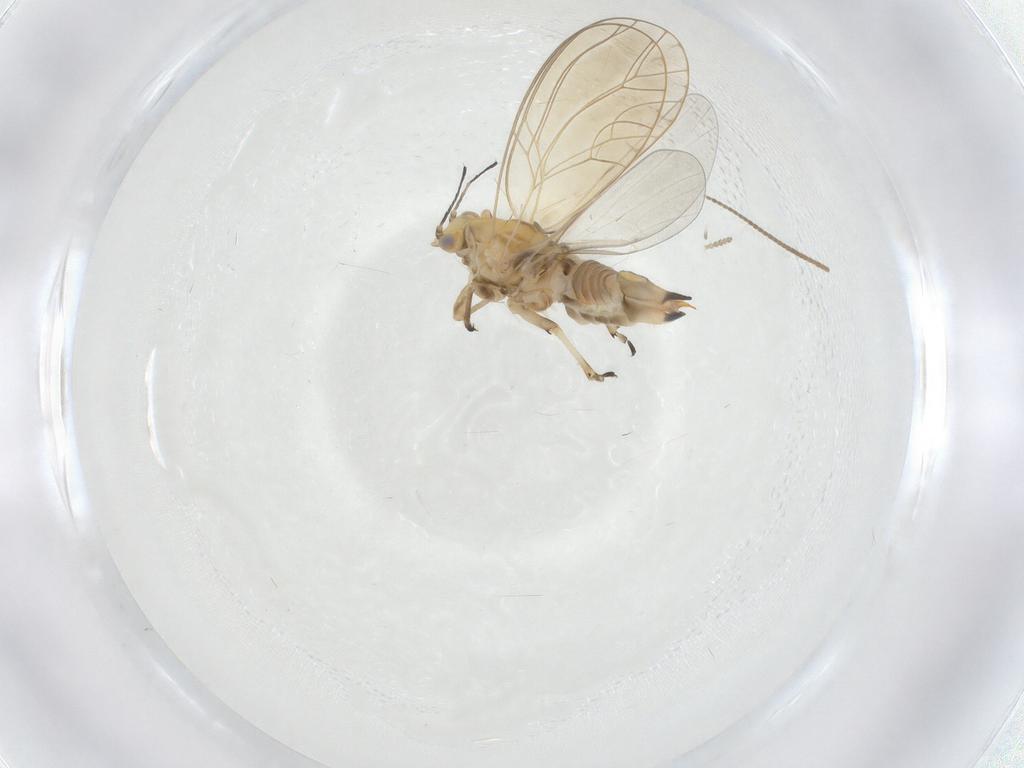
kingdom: Animalia
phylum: Arthropoda
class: Insecta
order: Hemiptera
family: Triozidae
